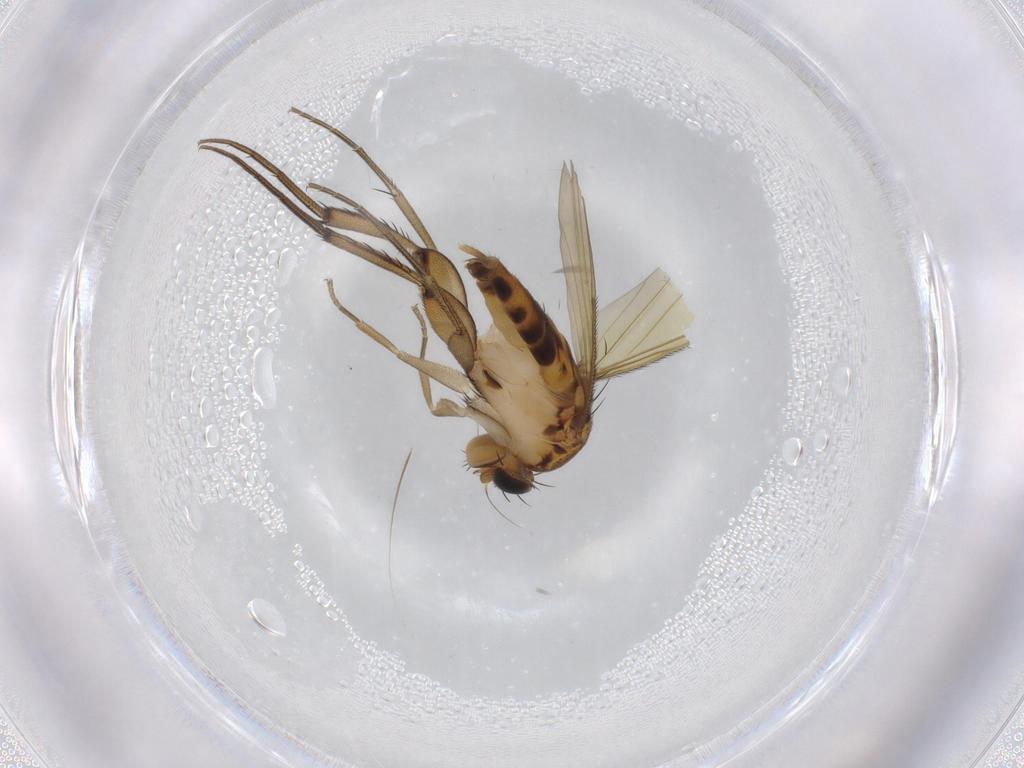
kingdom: Animalia
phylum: Arthropoda
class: Insecta
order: Diptera
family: Phoridae
